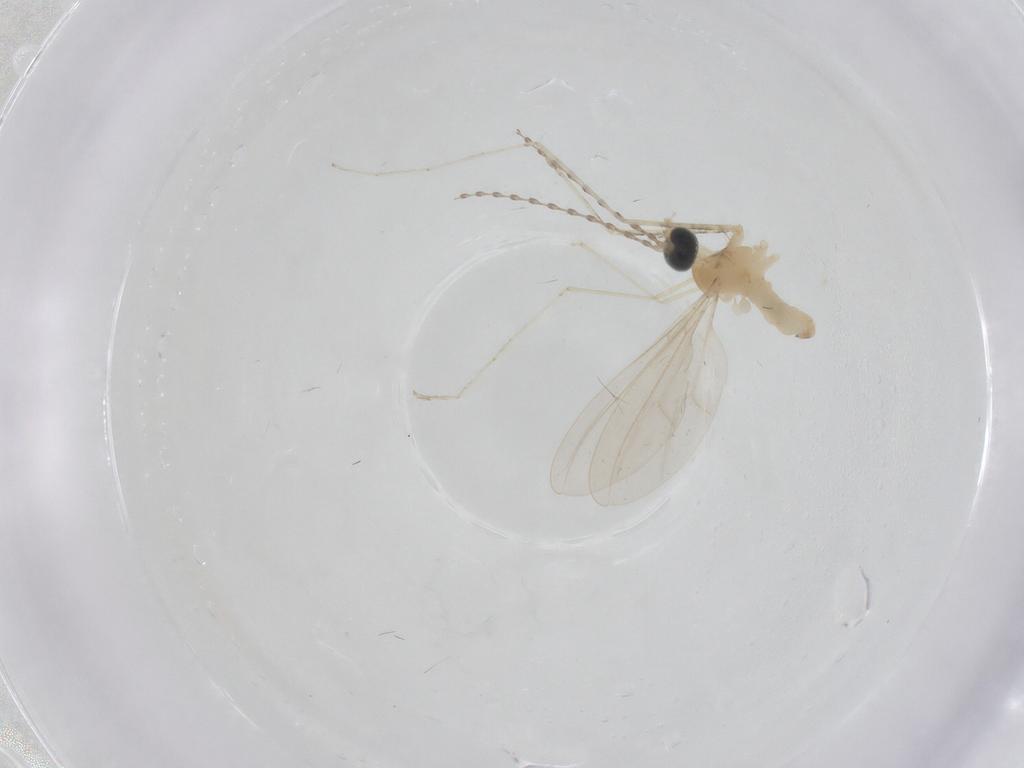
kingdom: Animalia
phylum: Arthropoda
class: Insecta
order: Diptera
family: Cecidomyiidae
